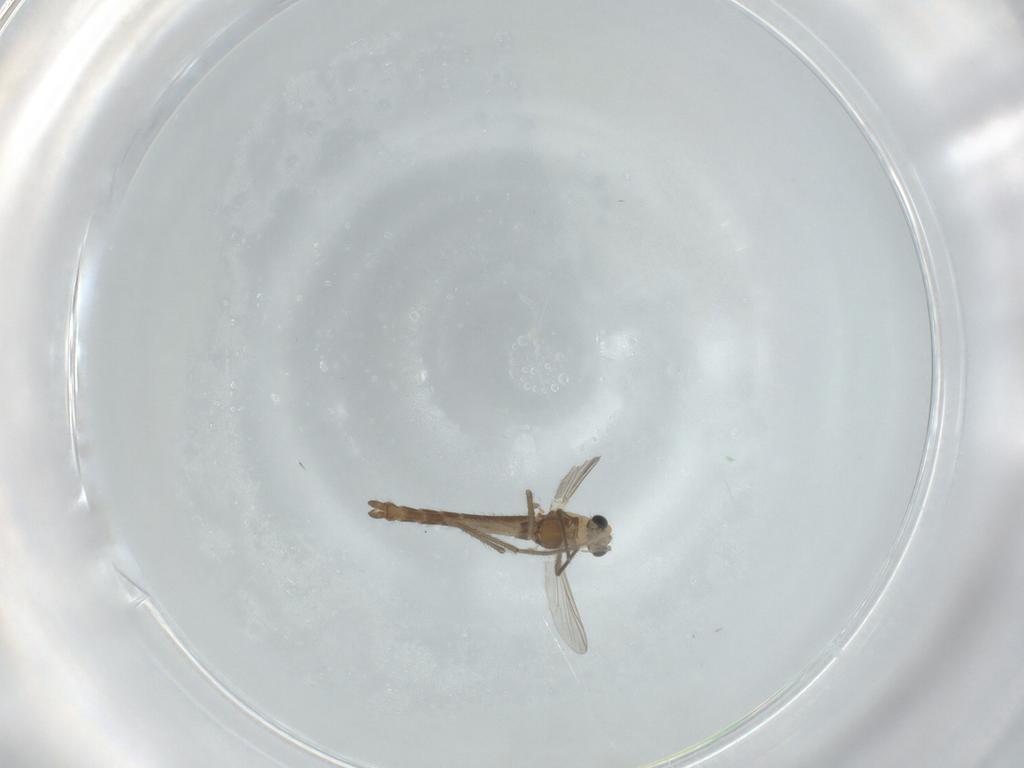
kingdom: Animalia
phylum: Arthropoda
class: Insecta
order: Diptera
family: Chironomidae
